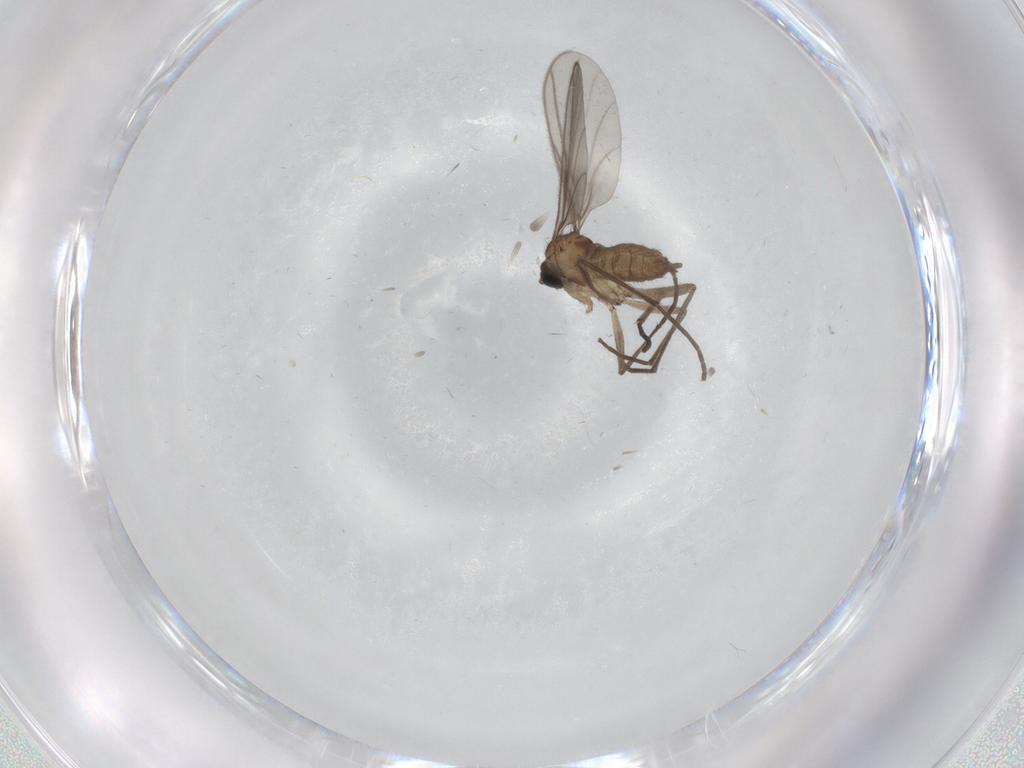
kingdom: Animalia
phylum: Arthropoda
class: Insecta
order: Diptera
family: Sciaridae
